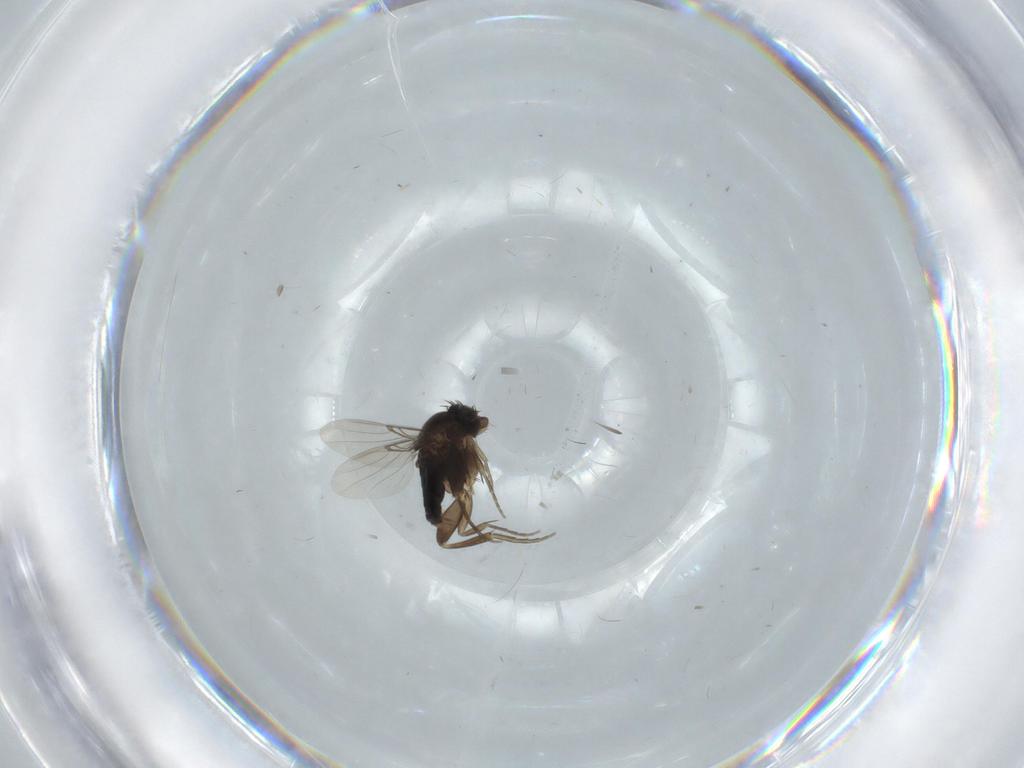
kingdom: Animalia
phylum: Arthropoda
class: Insecta
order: Diptera
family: Phoridae
